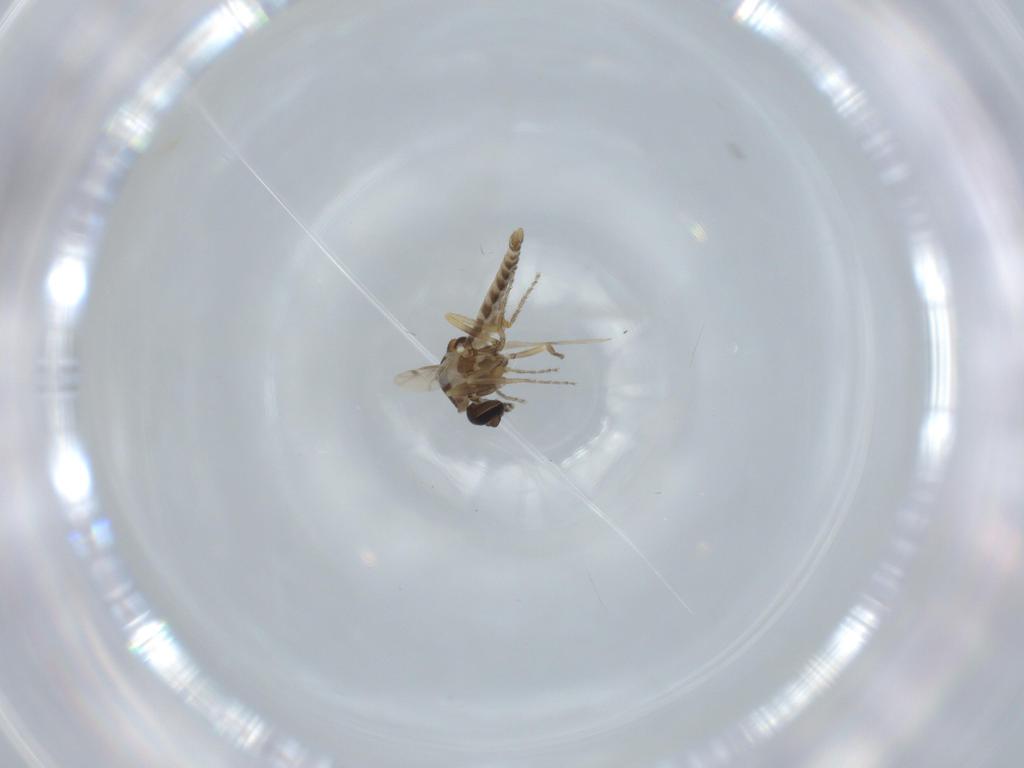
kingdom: Animalia
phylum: Arthropoda
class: Insecta
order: Diptera
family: Ceratopogonidae
